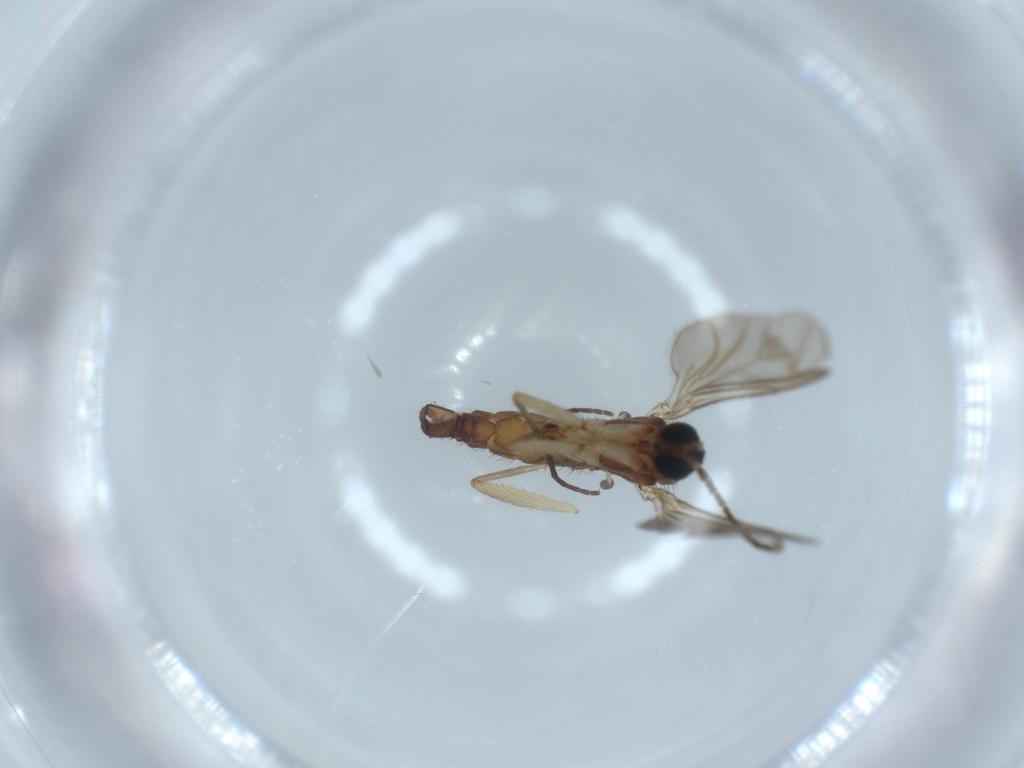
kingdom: Animalia
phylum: Arthropoda
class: Insecta
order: Diptera
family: Sciaridae
